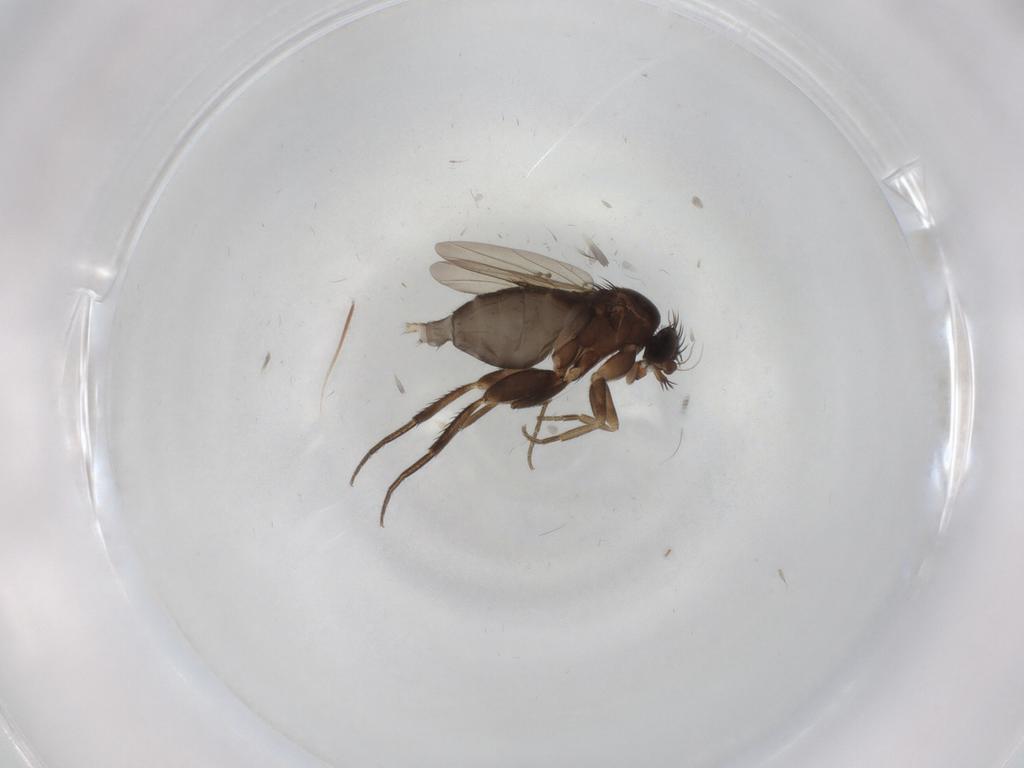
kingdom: Animalia
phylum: Arthropoda
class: Insecta
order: Diptera
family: Phoridae
